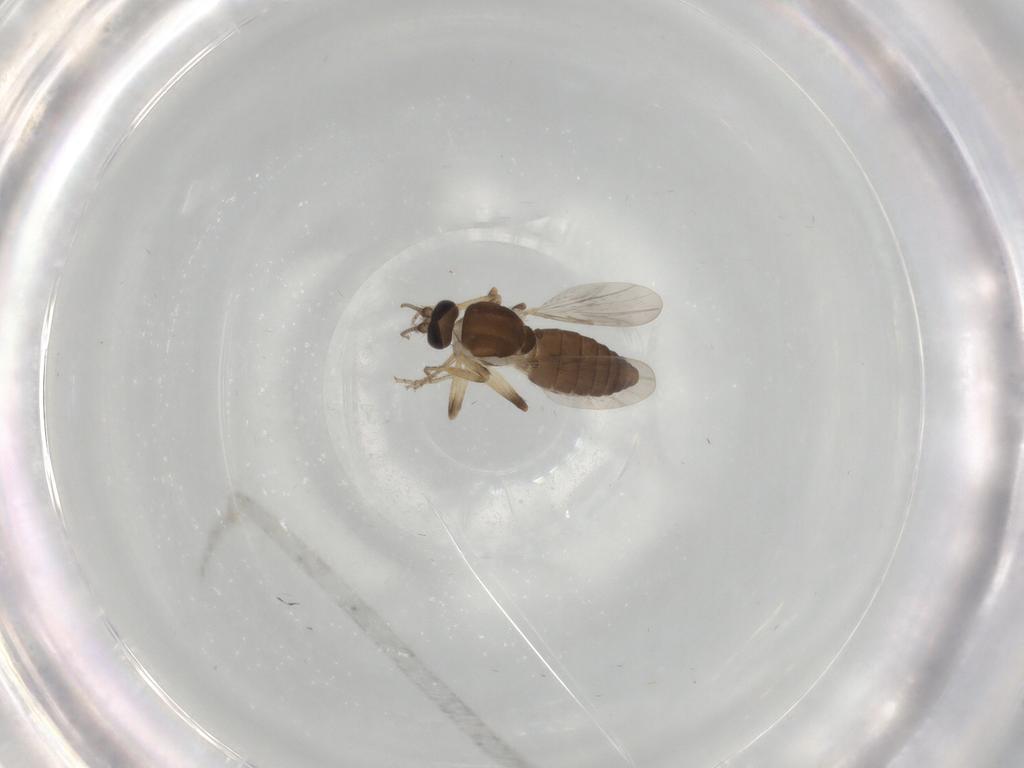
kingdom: Animalia
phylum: Arthropoda
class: Insecta
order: Diptera
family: Ceratopogonidae
